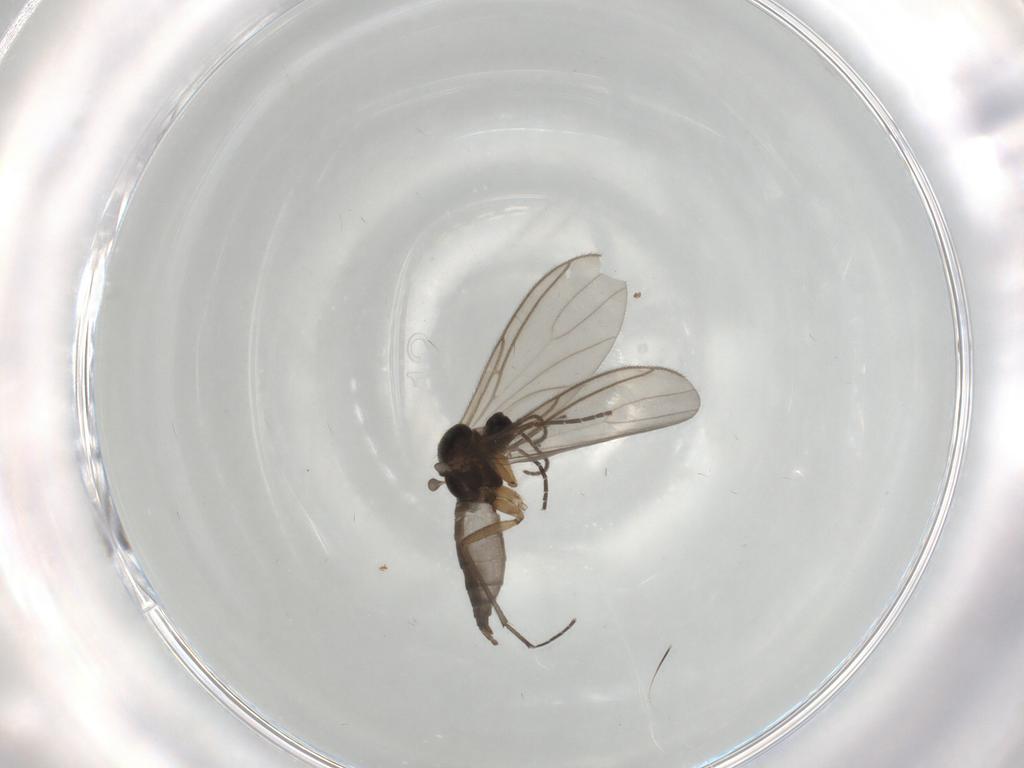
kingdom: Animalia
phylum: Arthropoda
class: Insecta
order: Diptera
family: Sciaridae
